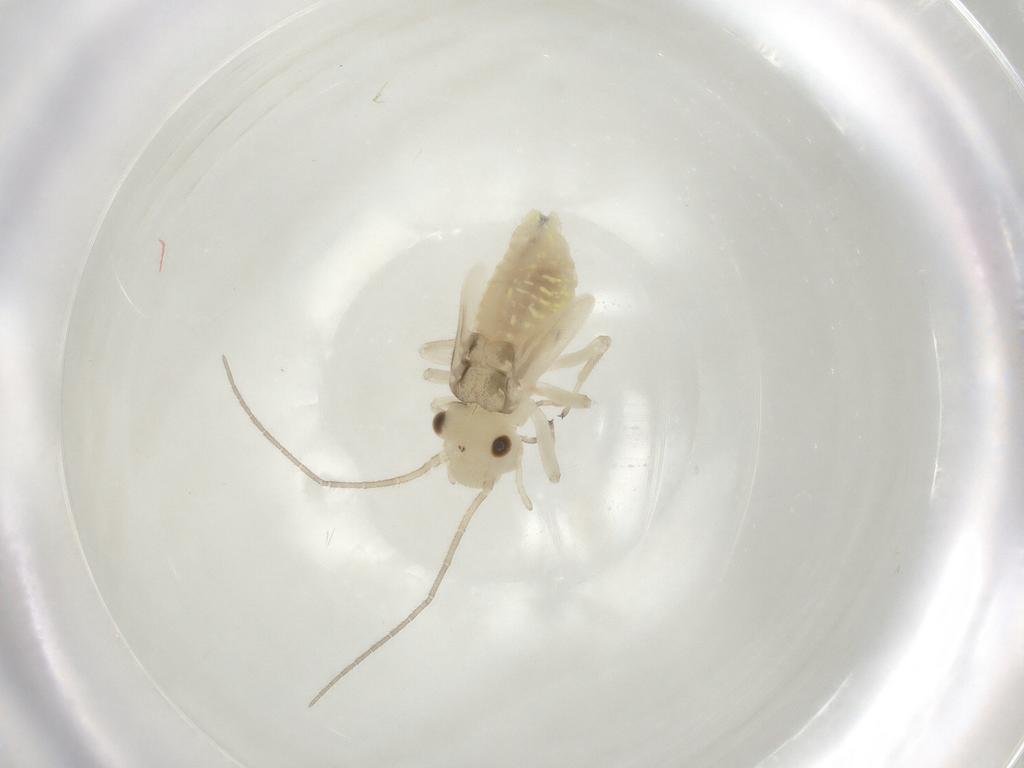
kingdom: Animalia
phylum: Arthropoda
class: Insecta
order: Psocodea
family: Caeciliusidae
